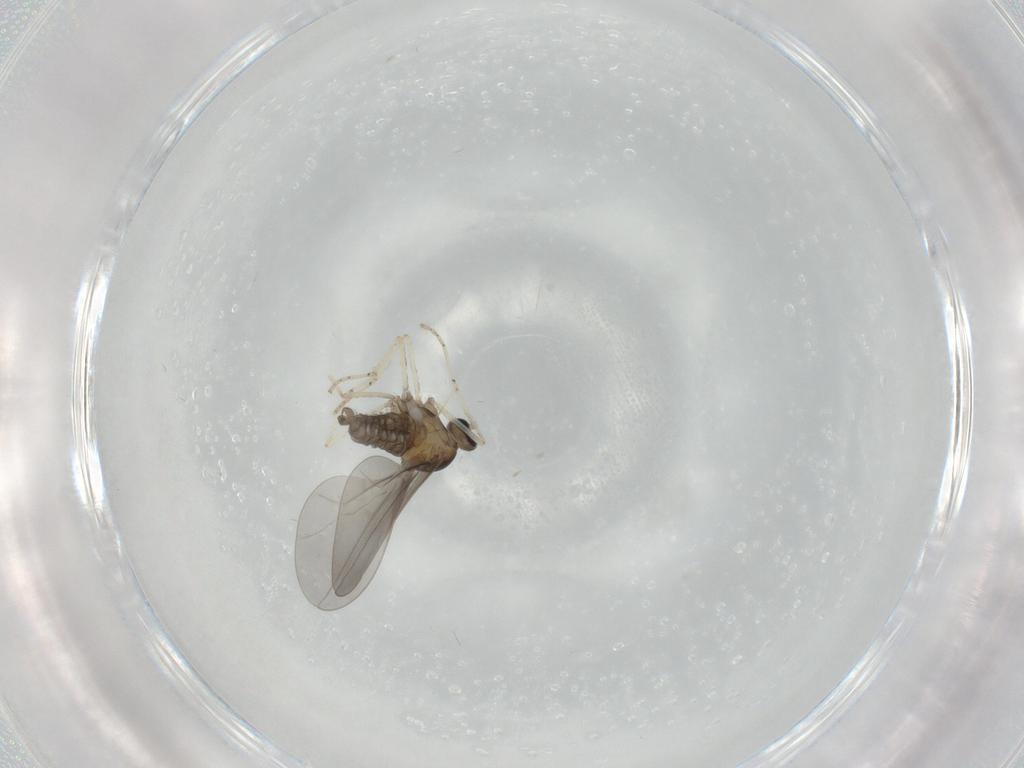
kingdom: Animalia
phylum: Arthropoda
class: Insecta
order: Diptera
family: Cecidomyiidae
